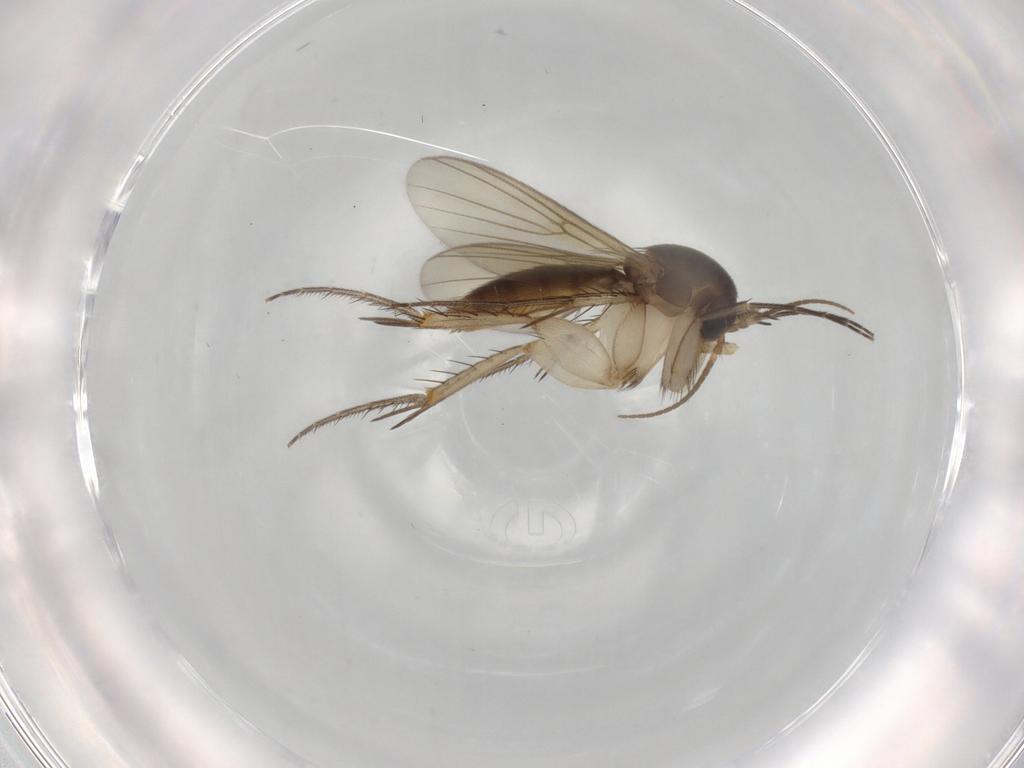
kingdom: Animalia
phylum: Arthropoda
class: Insecta
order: Diptera
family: Mycetophilidae
